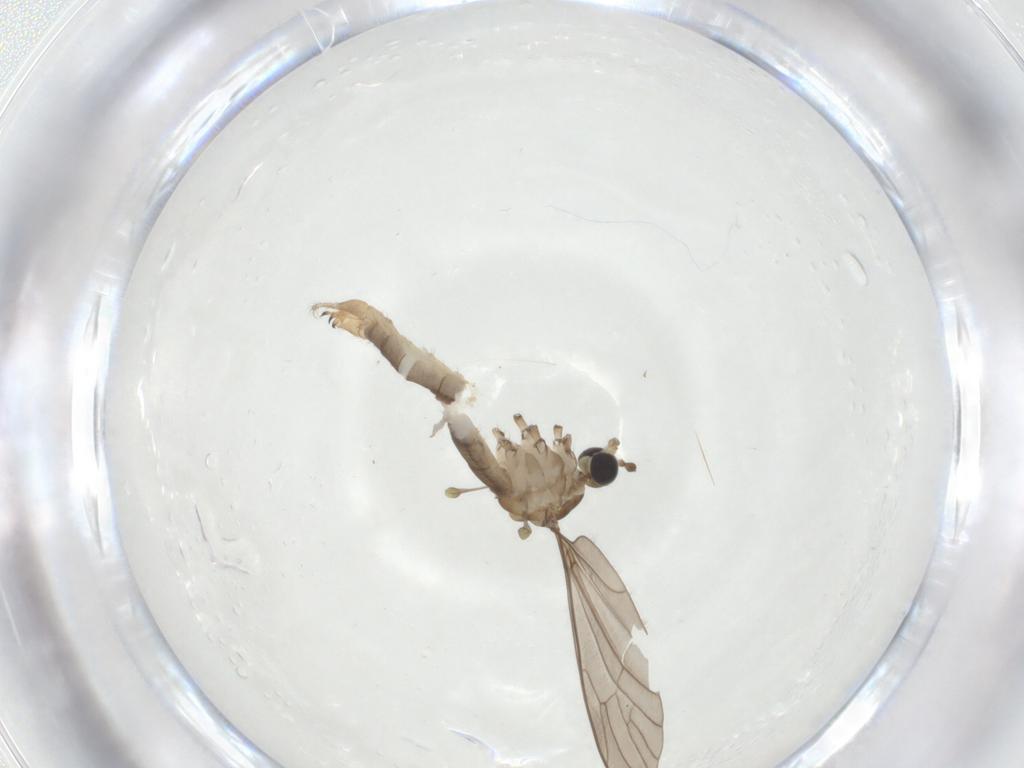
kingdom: Animalia
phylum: Arthropoda
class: Insecta
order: Diptera
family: Limoniidae
